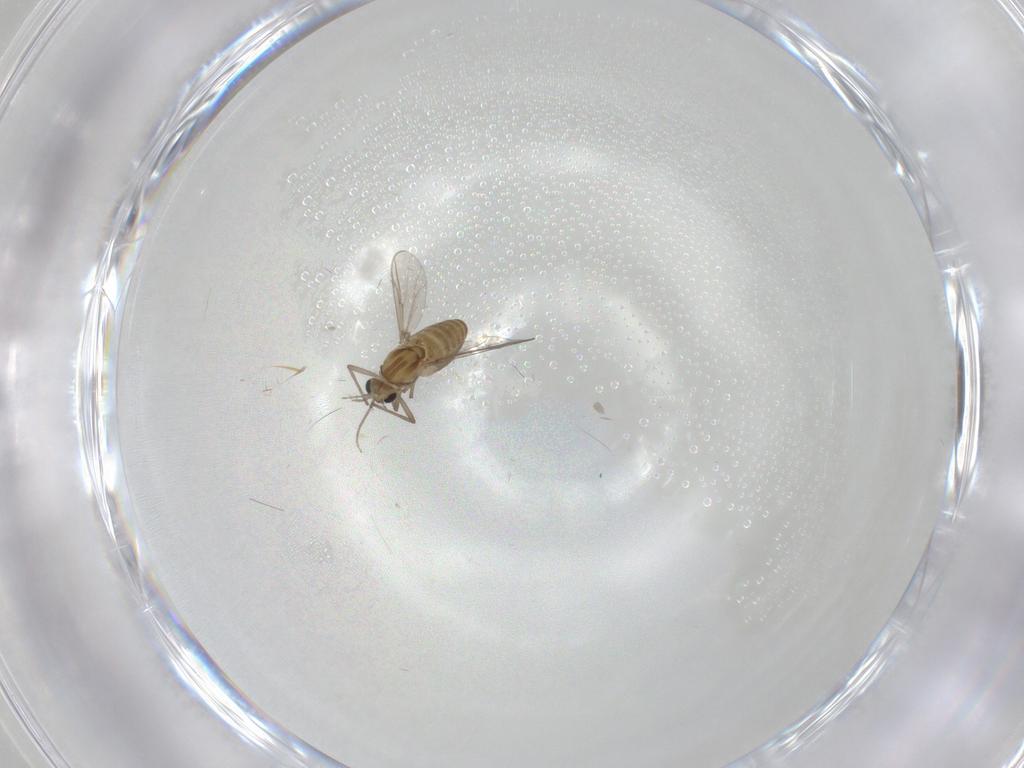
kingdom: Animalia
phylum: Arthropoda
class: Insecta
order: Diptera
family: Chironomidae
